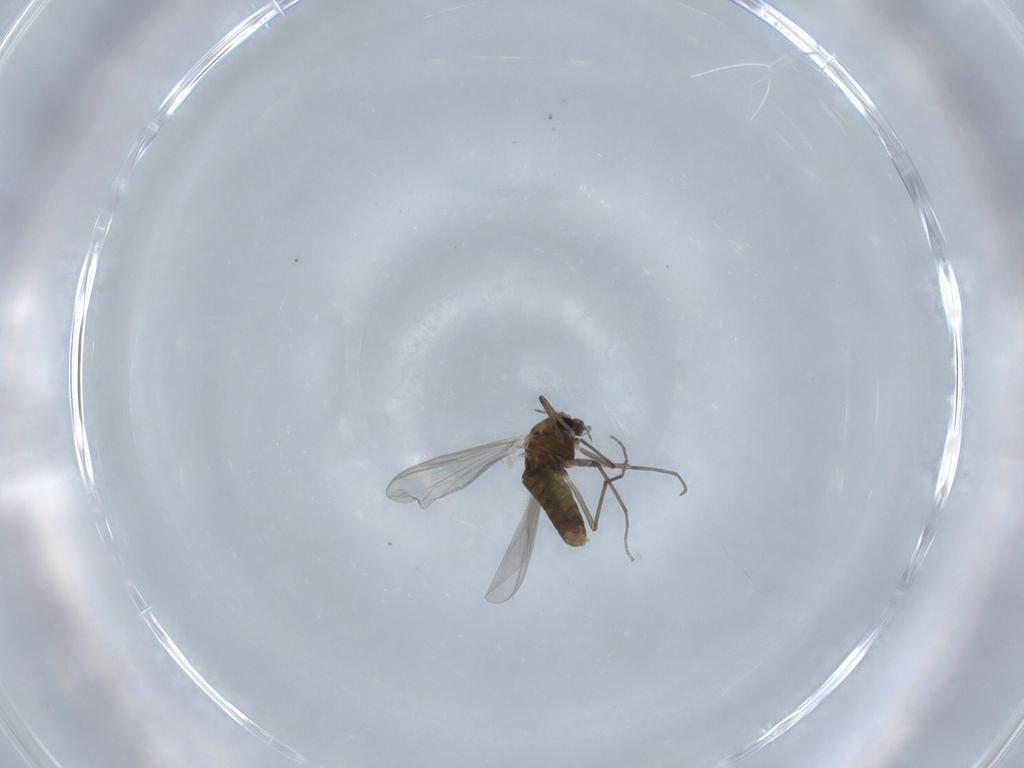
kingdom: Animalia
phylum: Arthropoda
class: Insecta
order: Diptera
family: Chironomidae
